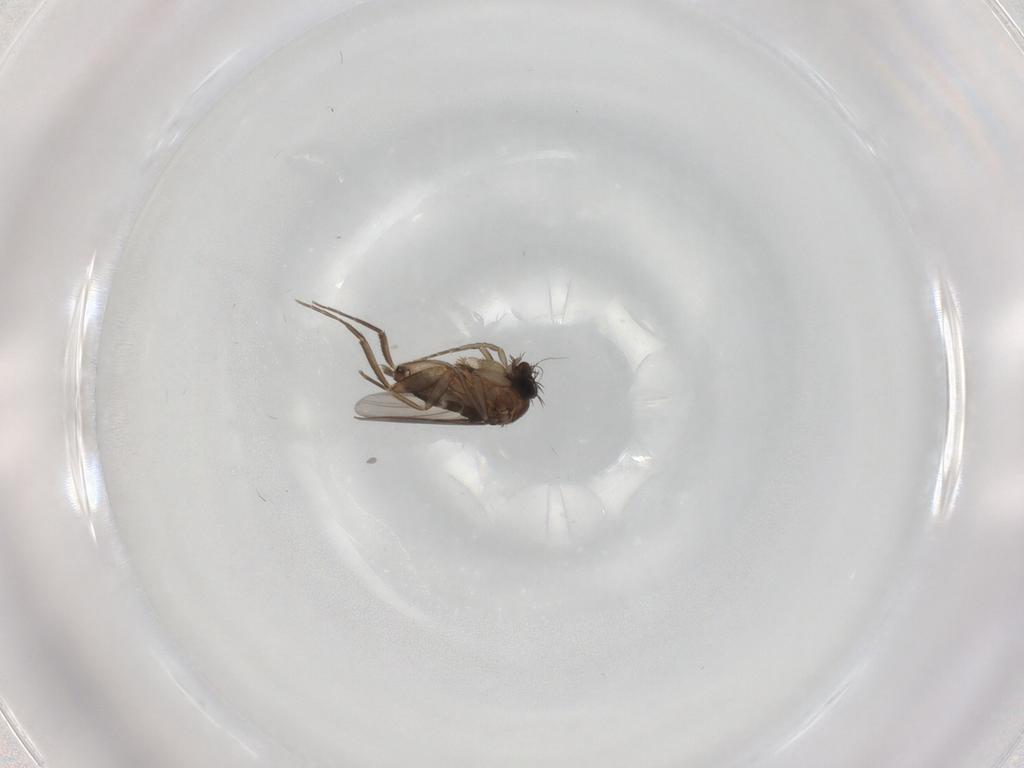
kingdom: Animalia
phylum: Arthropoda
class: Insecta
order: Diptera
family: Phoridae
